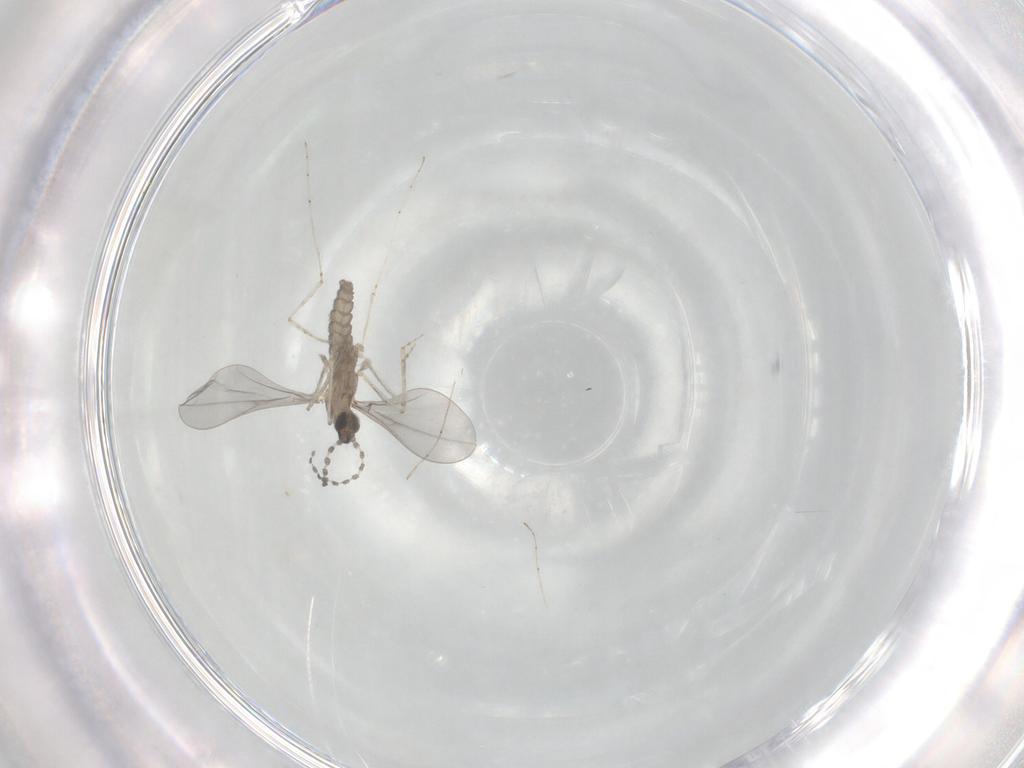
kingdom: Animalia
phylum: Arthropoda
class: Insecta
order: Diptera
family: Cecidomyiidae
